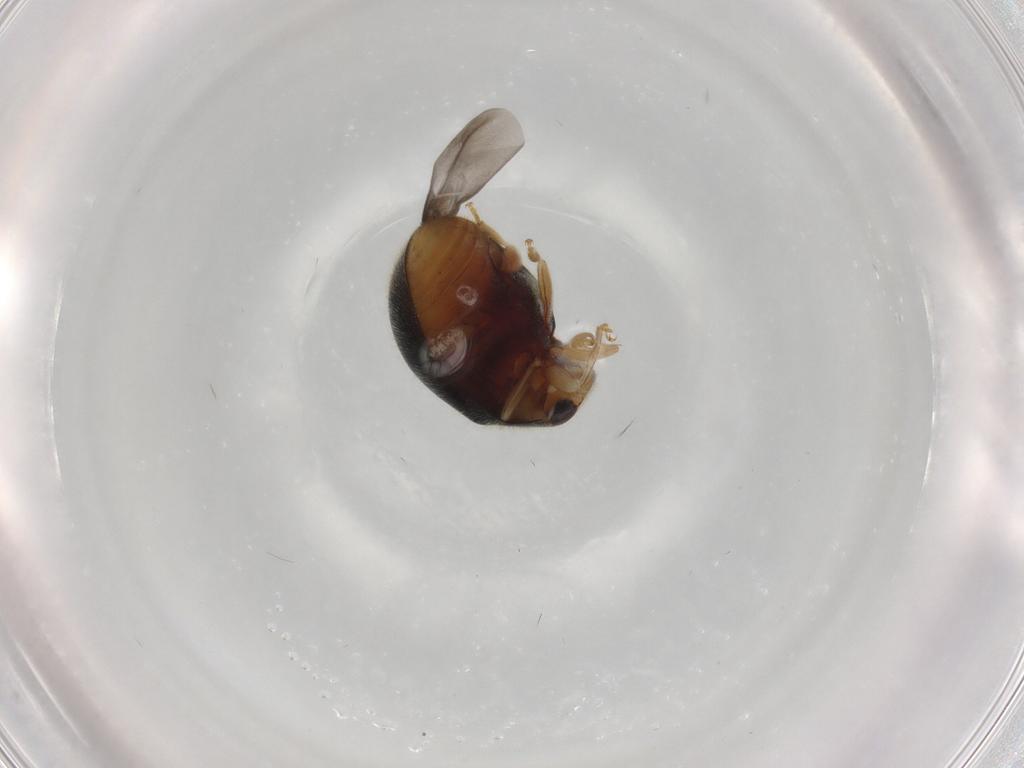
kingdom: Animalia
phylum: Arthropoda
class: Insecta
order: Coleoptera
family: Coccinellidae
